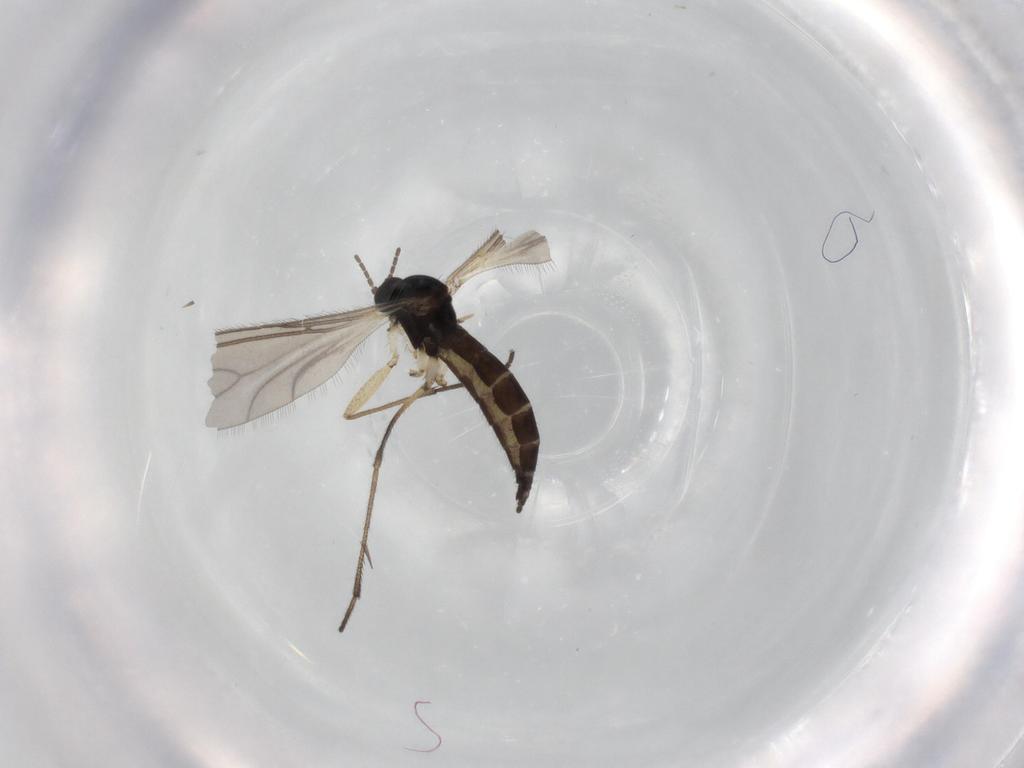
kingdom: Animalia
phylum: Arthropoda
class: Insecta
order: Diptera
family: Sciaridae
